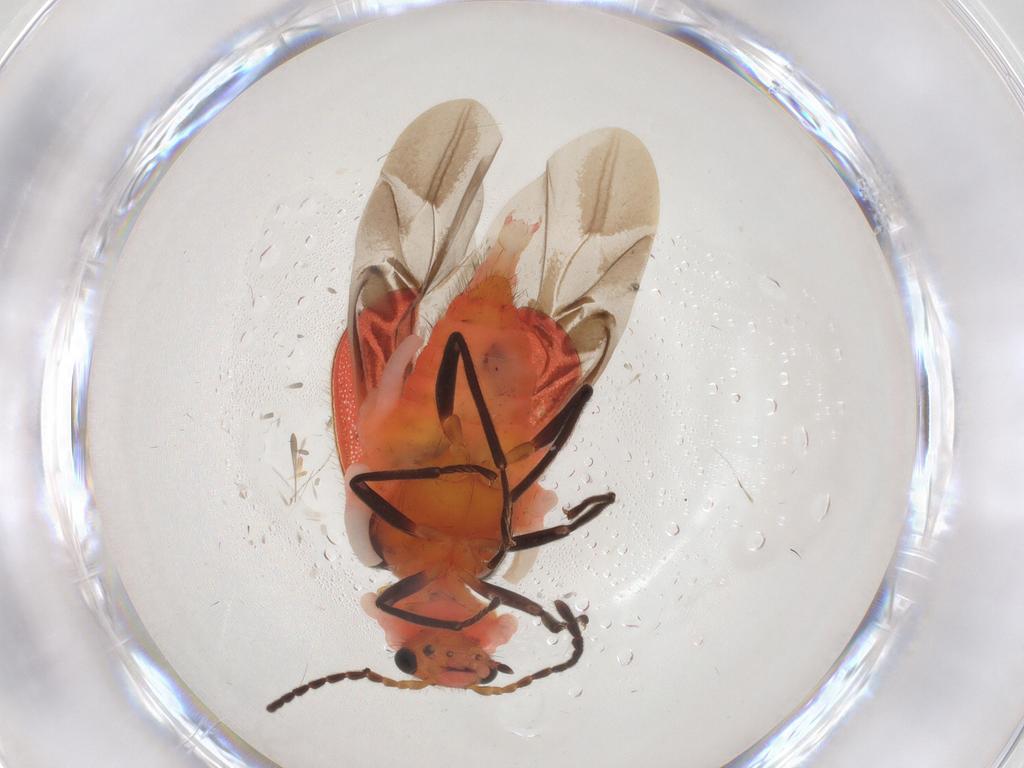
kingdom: Animalia
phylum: Arthropoda
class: Insecta
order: Coleoptera
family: Melyridae
